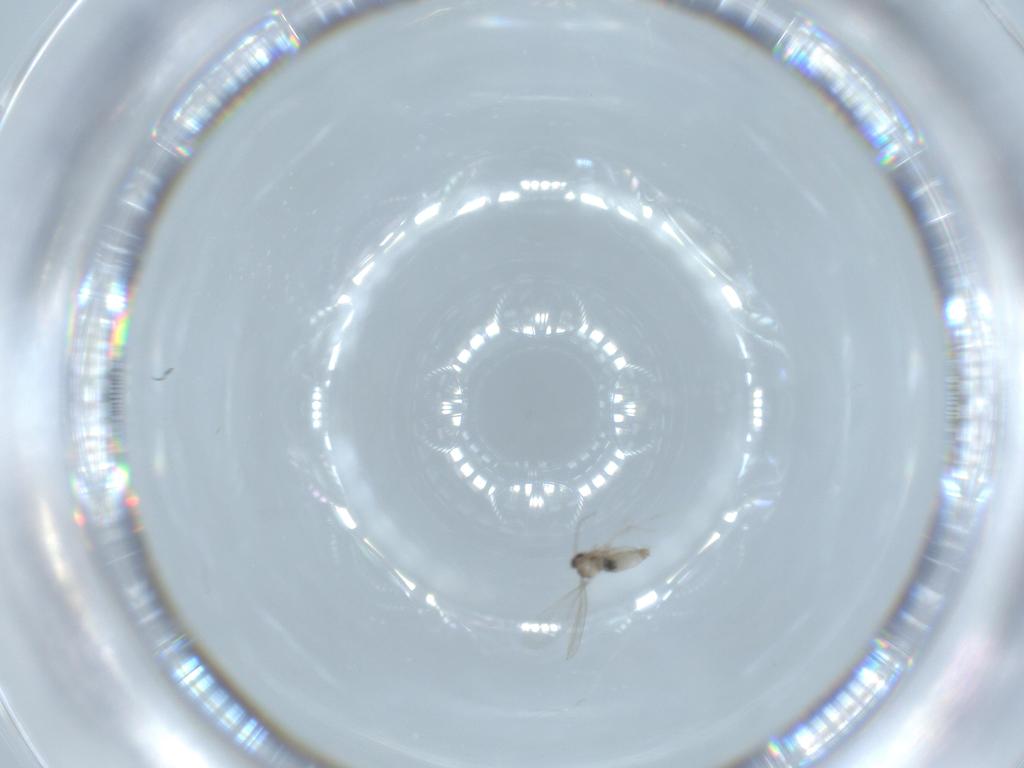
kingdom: Animalia
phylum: Arthropoda
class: Insecta
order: Diptera
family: Stratiomyidae
